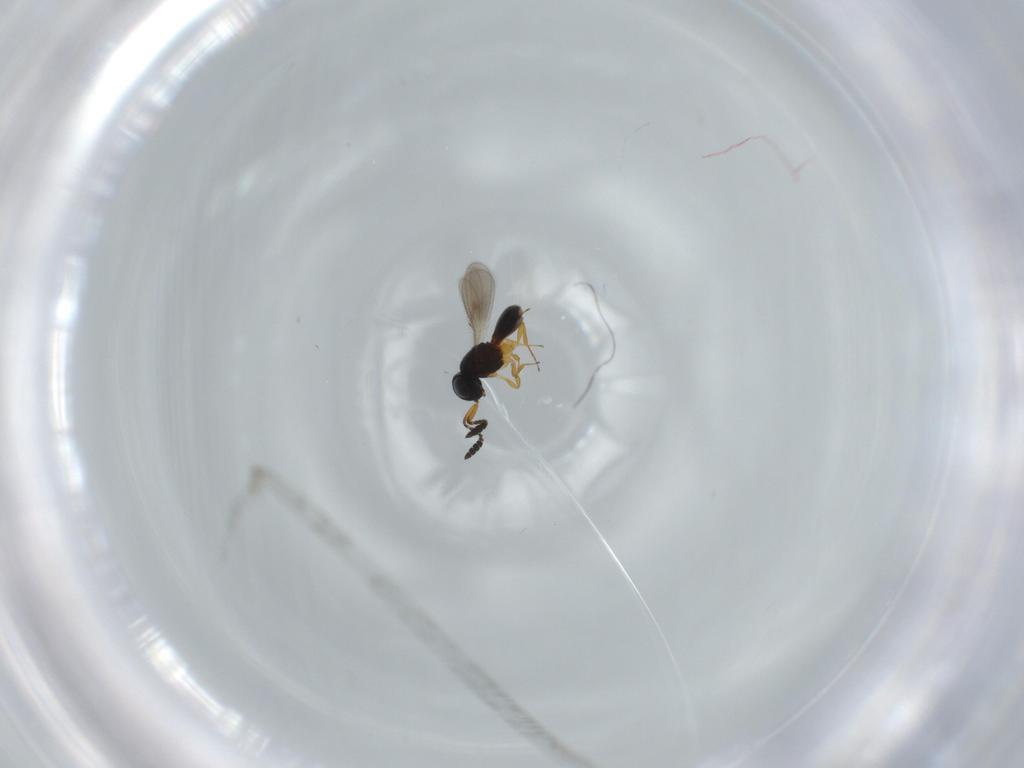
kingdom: Animalia
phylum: Arthropoda
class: Insecta
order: Hymenoptera
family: Scelionidae
